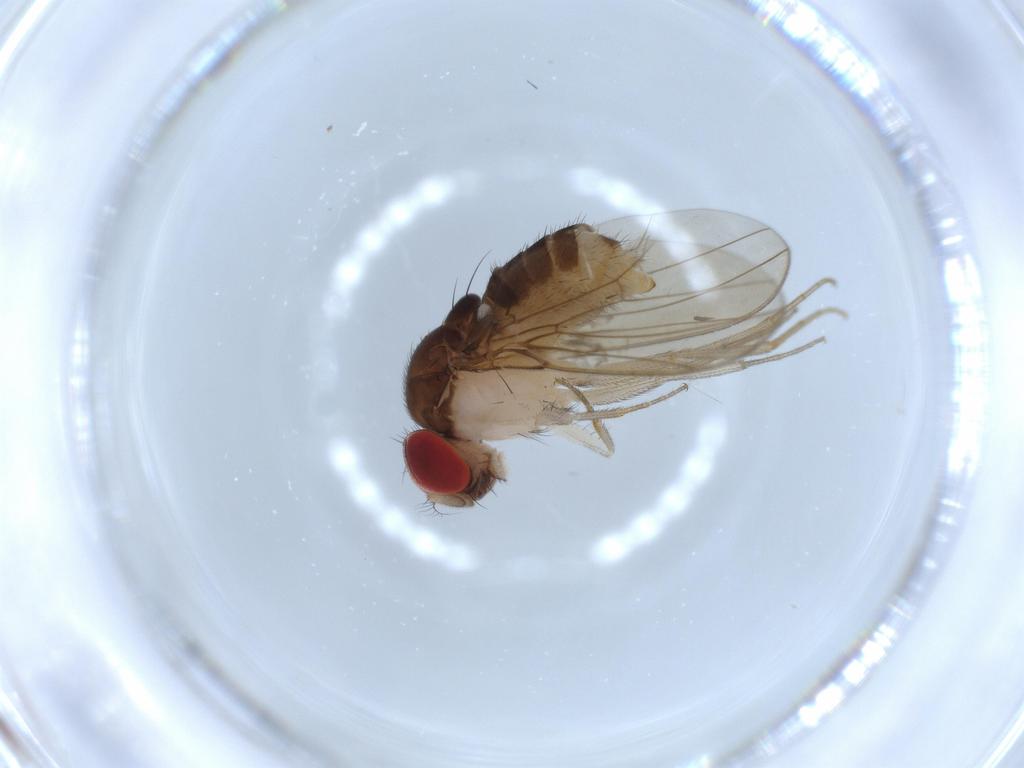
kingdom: Animalia
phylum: Arthropoda
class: Insecta
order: Diptera
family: Drosophilidae
